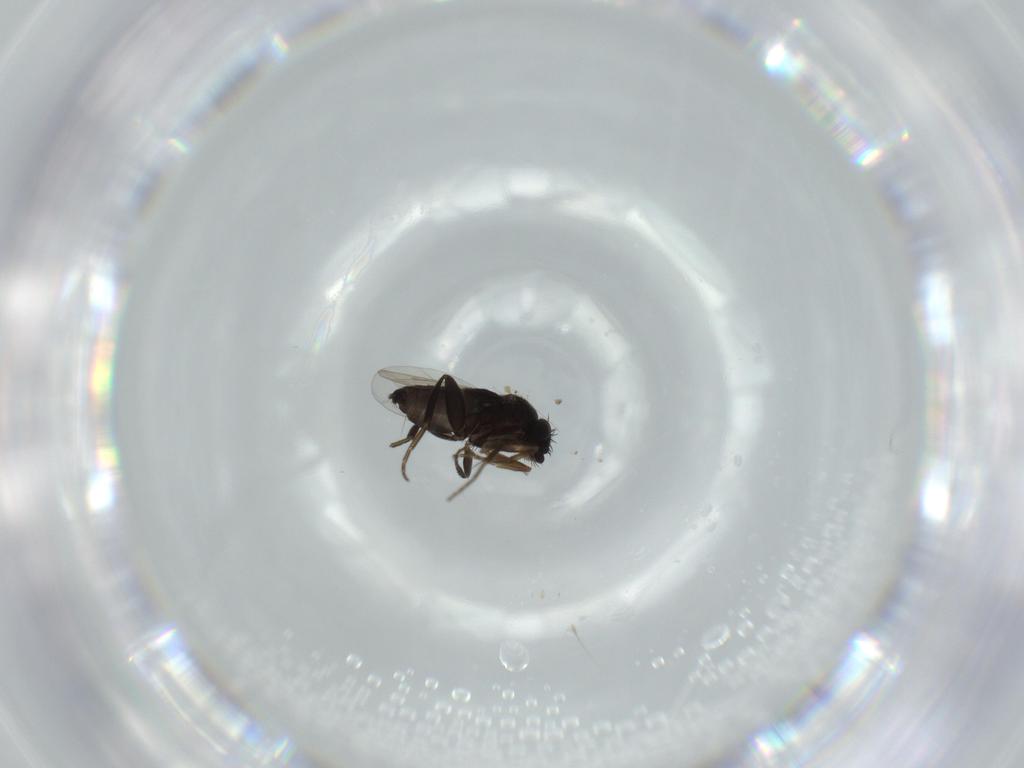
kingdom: Animalia
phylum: Arthropoda
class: Insecta
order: Diptera
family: Phoridae
